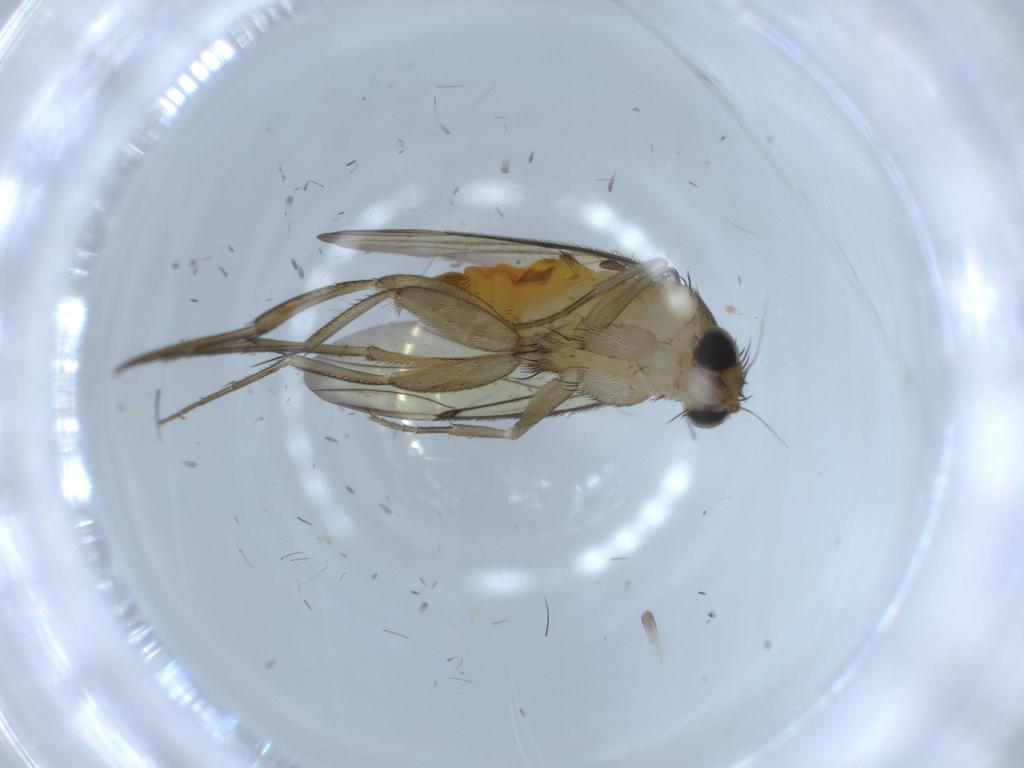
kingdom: Animalia
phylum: Arthropoda
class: Insecta
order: Diptera
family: Phoridae
